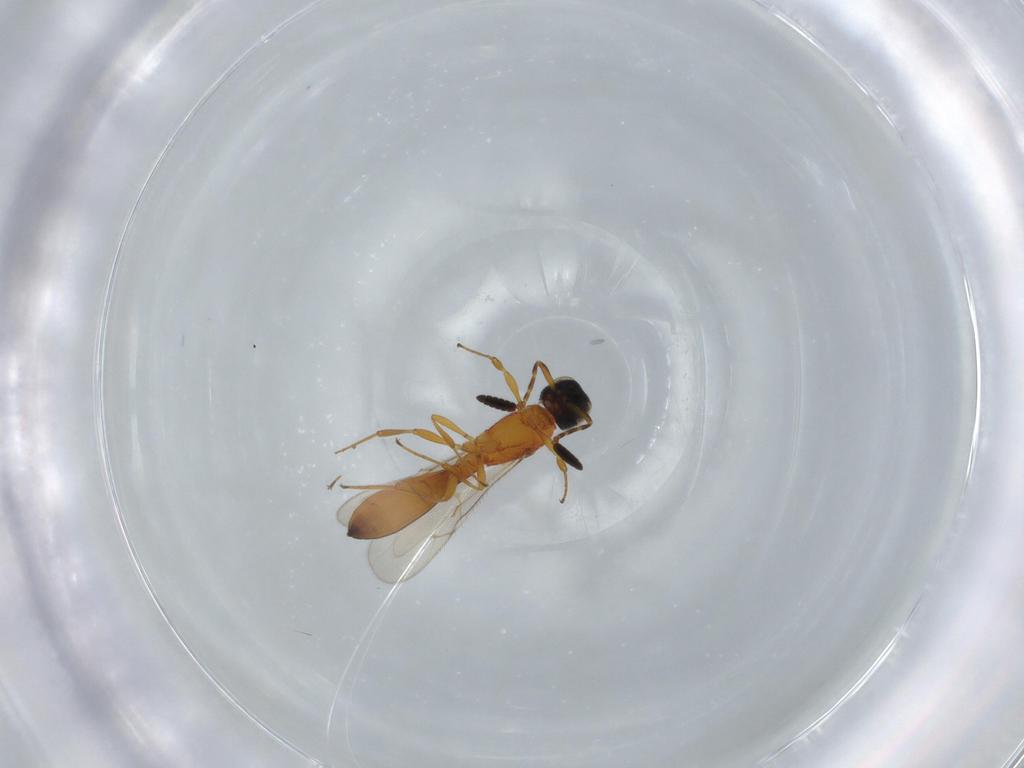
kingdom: Animalia
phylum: Arthropoda
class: Insecta
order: Hymenoptera
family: Scelionidae
